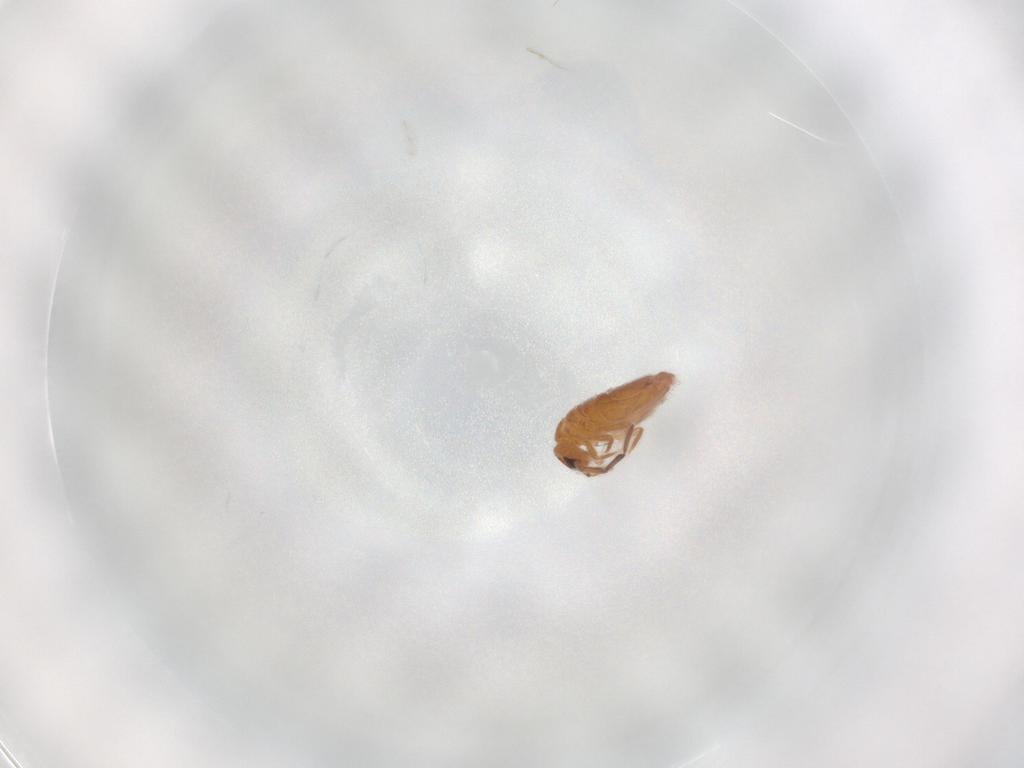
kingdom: Animalia
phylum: Arthropoda
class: Collembola
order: Entomobryomorpha
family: Entomobryidae
